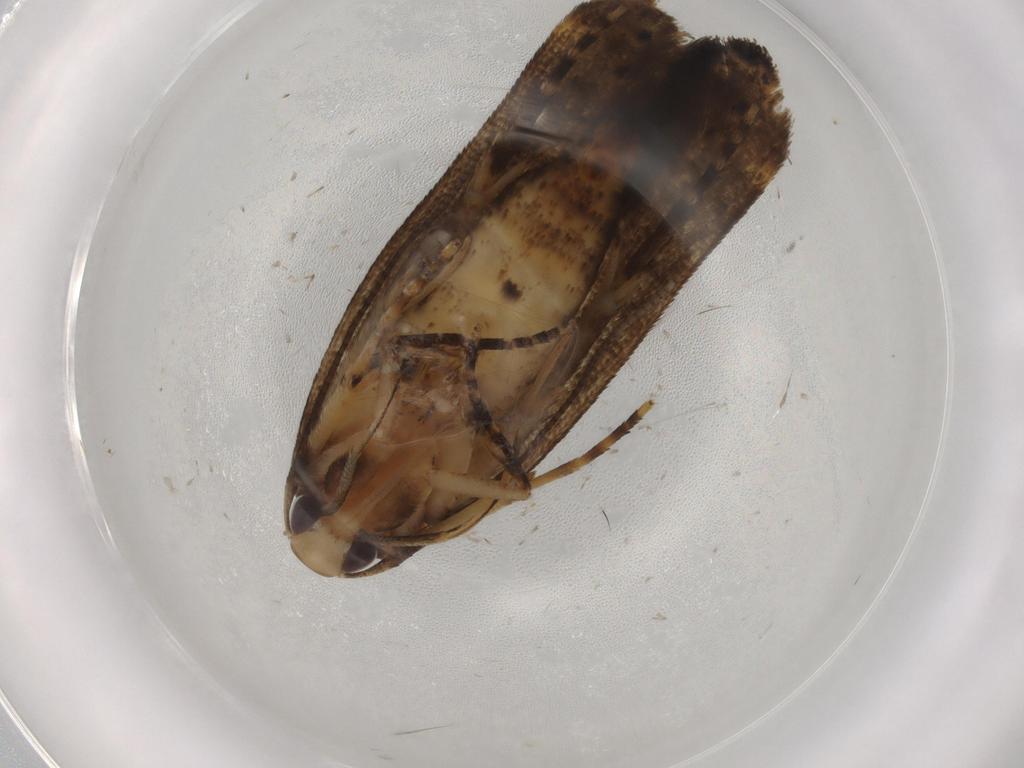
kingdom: Animalia
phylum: Arthropoda
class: Insecta
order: Lepidoptera
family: Cosmopterigidae
